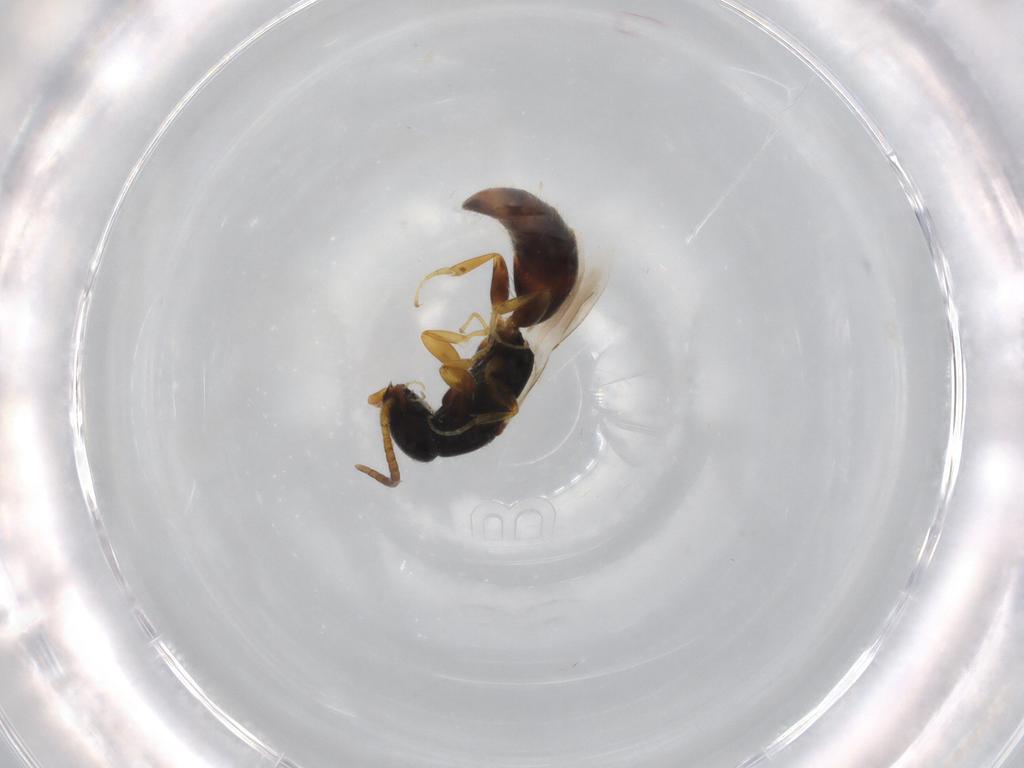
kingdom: Animalia
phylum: Arthropoda
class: Insecta
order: Hymenoptera
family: Bethylidae
